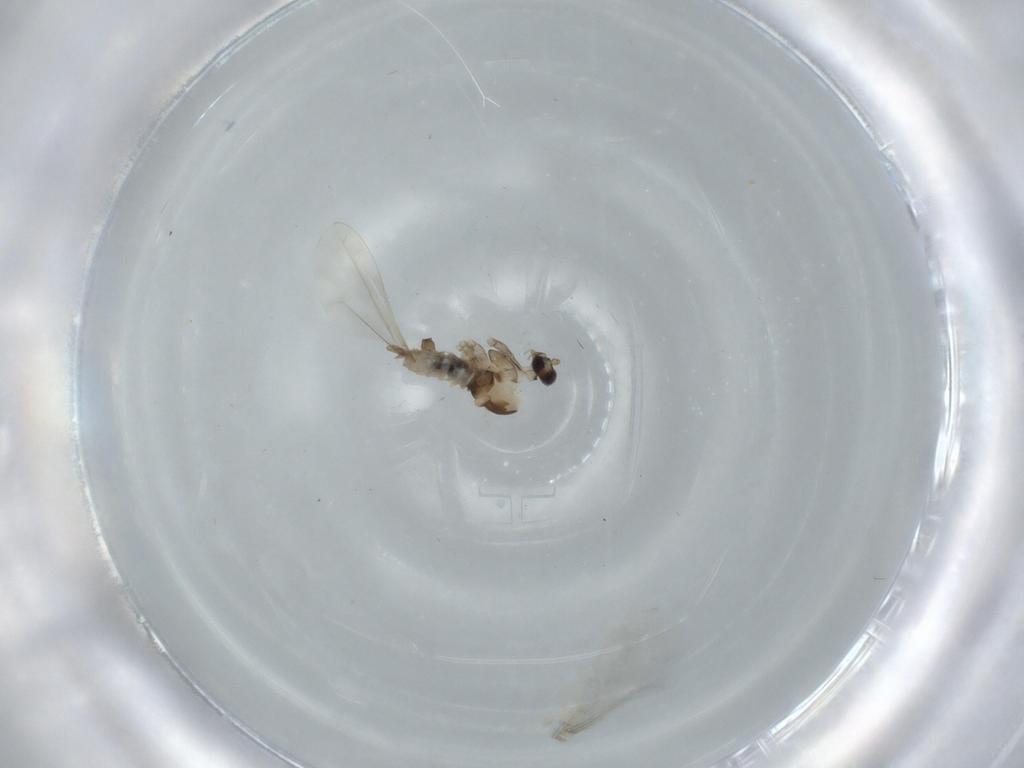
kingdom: Animalia
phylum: Arthropoda
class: Insecta
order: Diptera
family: Cecidomyiidae
